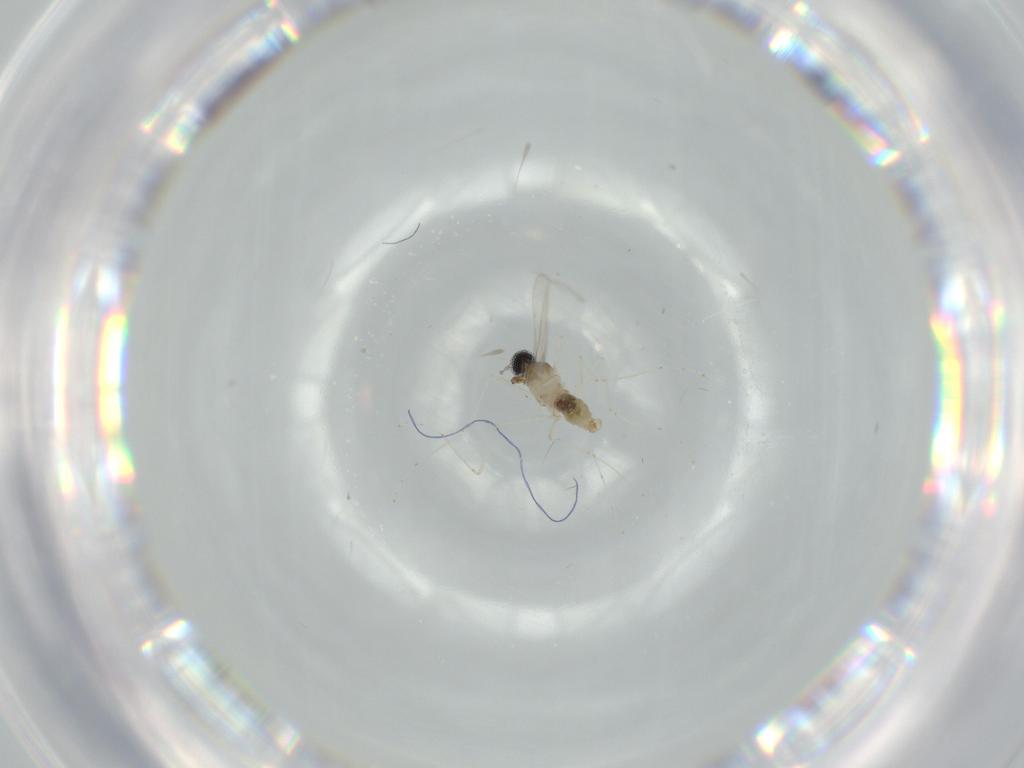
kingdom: Animalia
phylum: Arthropoda
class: Insecta
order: Diptera
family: Cecidomyiidae
